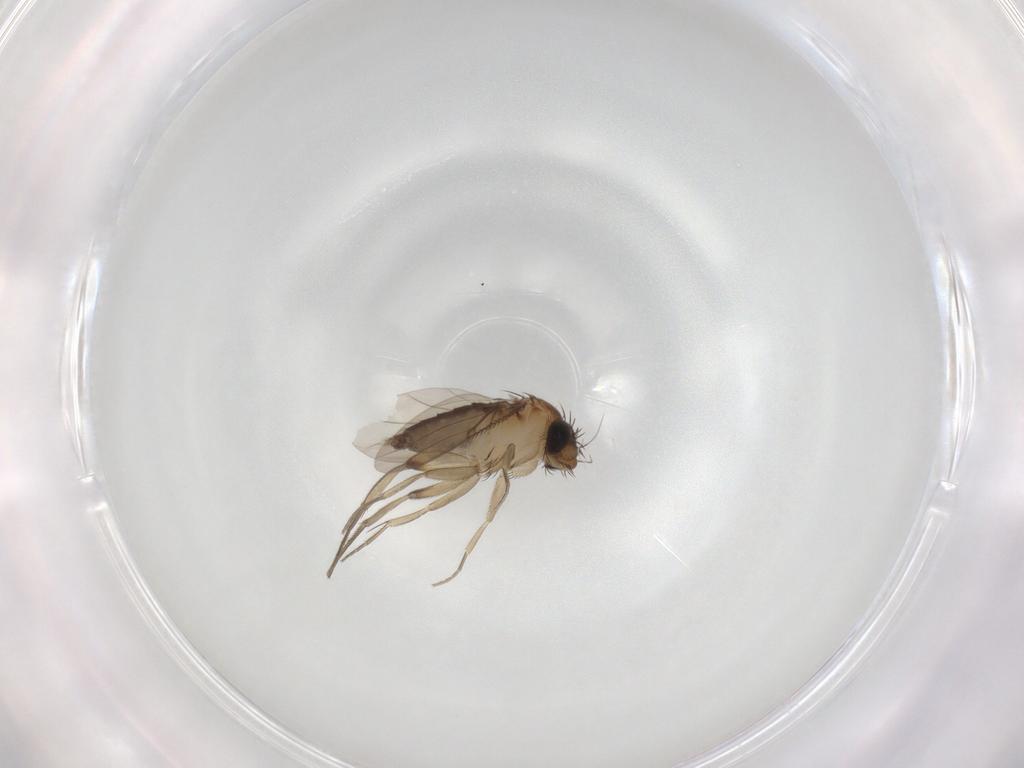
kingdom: Animalia
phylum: Arthropoda
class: Insecta
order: Diptera
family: Phoridae
